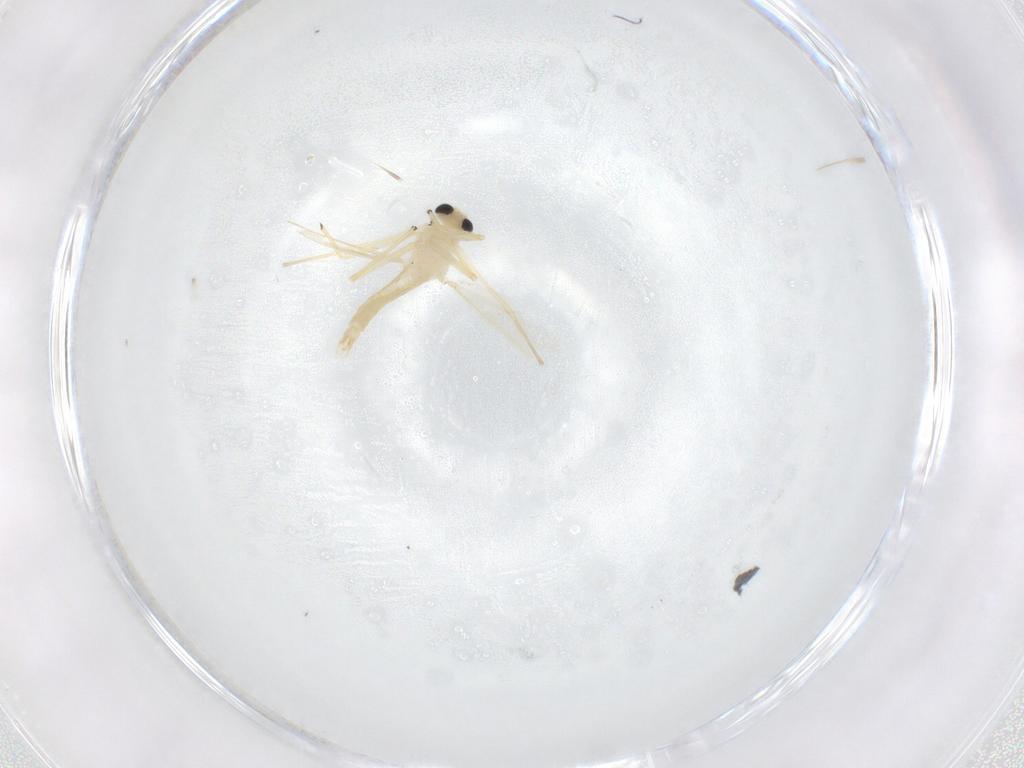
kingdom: Animalia
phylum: Arthropoda
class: Insecta
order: Diptera
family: Chironomidae
